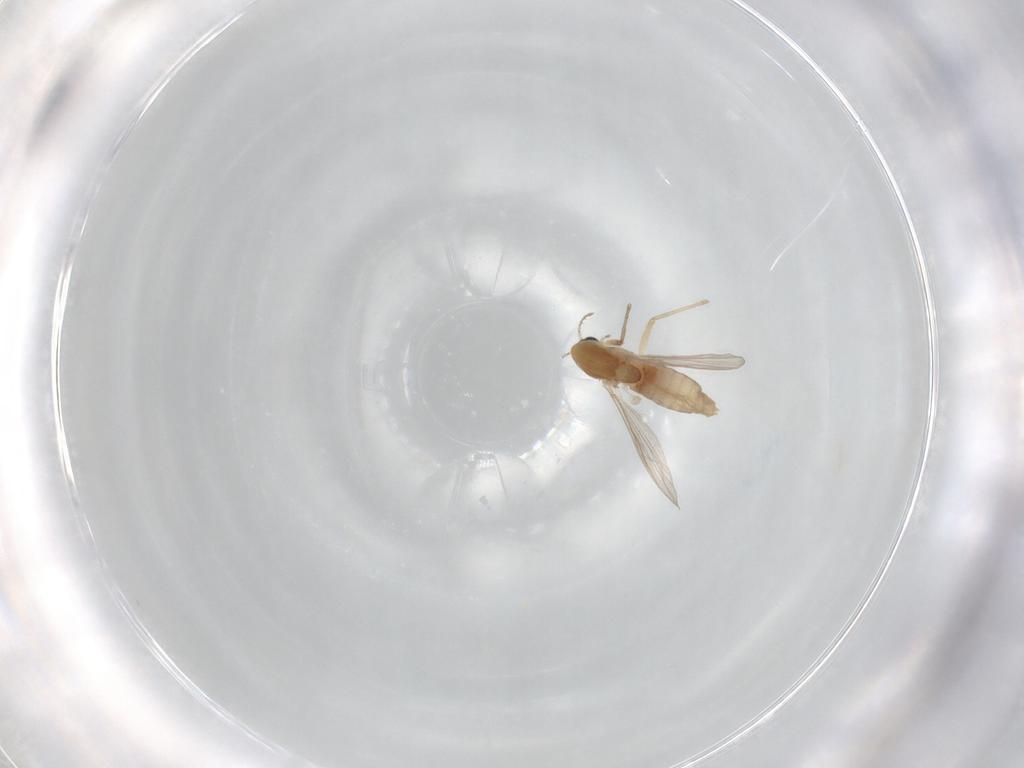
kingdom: Animalia
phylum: Arthropoda
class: Insecta
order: Diptera
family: Chironomidae
